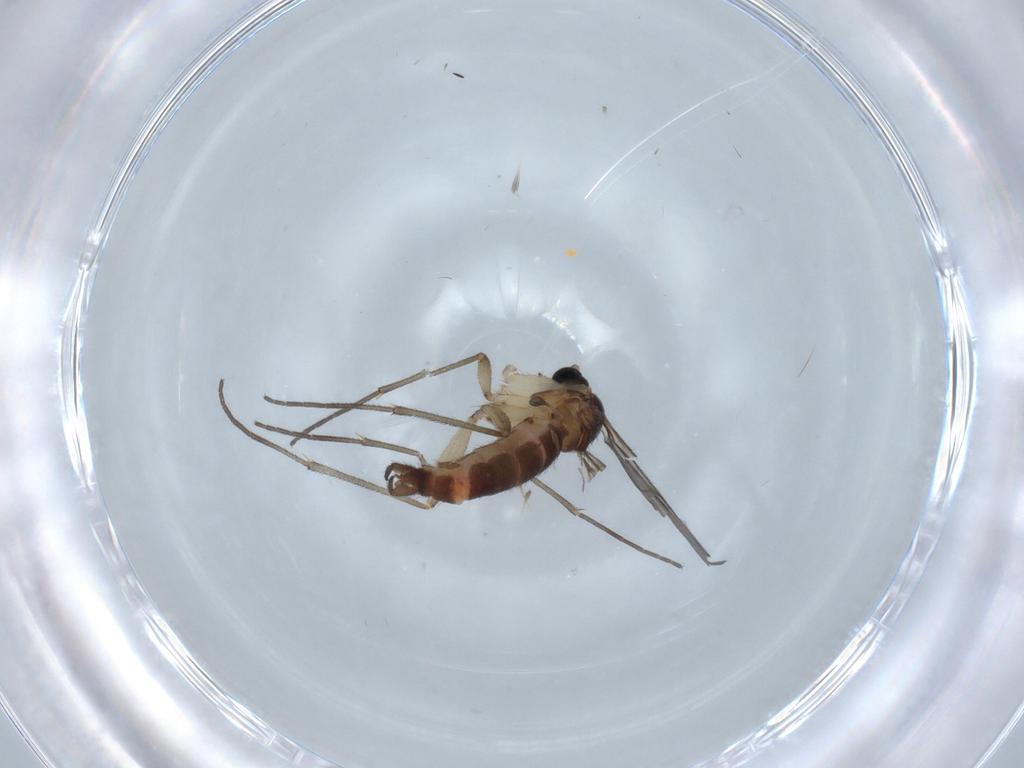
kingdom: Animalia
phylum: Arthropoda
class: Insecta
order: Diptera
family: Sciaridae
